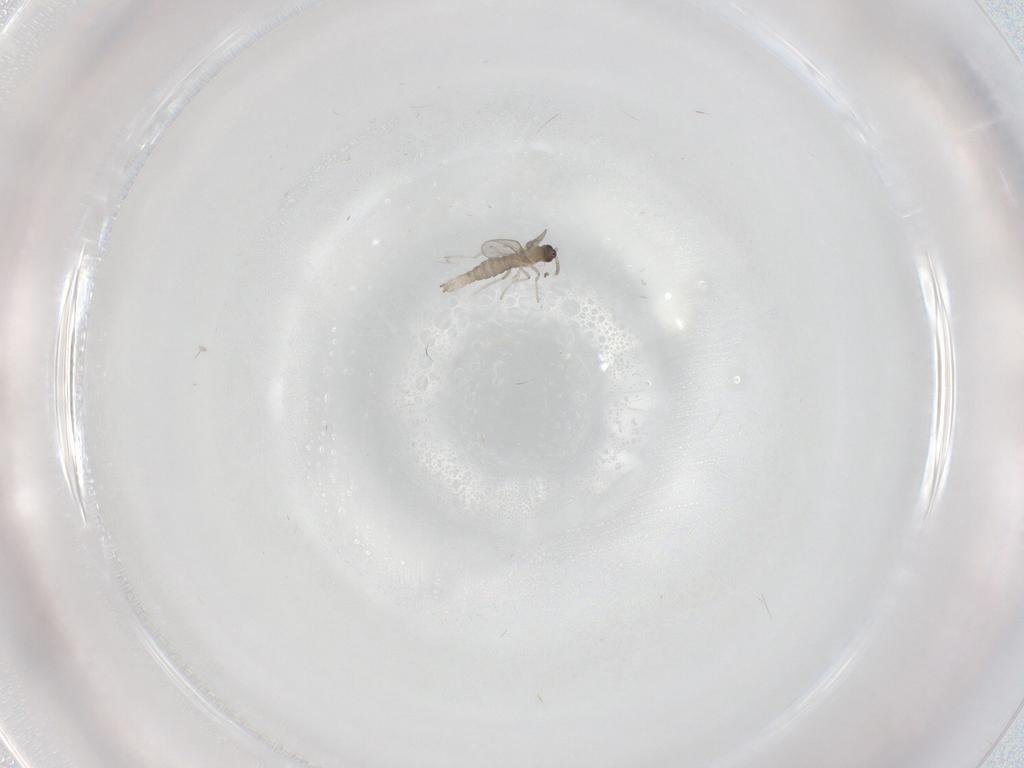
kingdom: Animalia
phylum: Arthropoda
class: Insecta
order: Diptera
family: Cecidomyiidae
